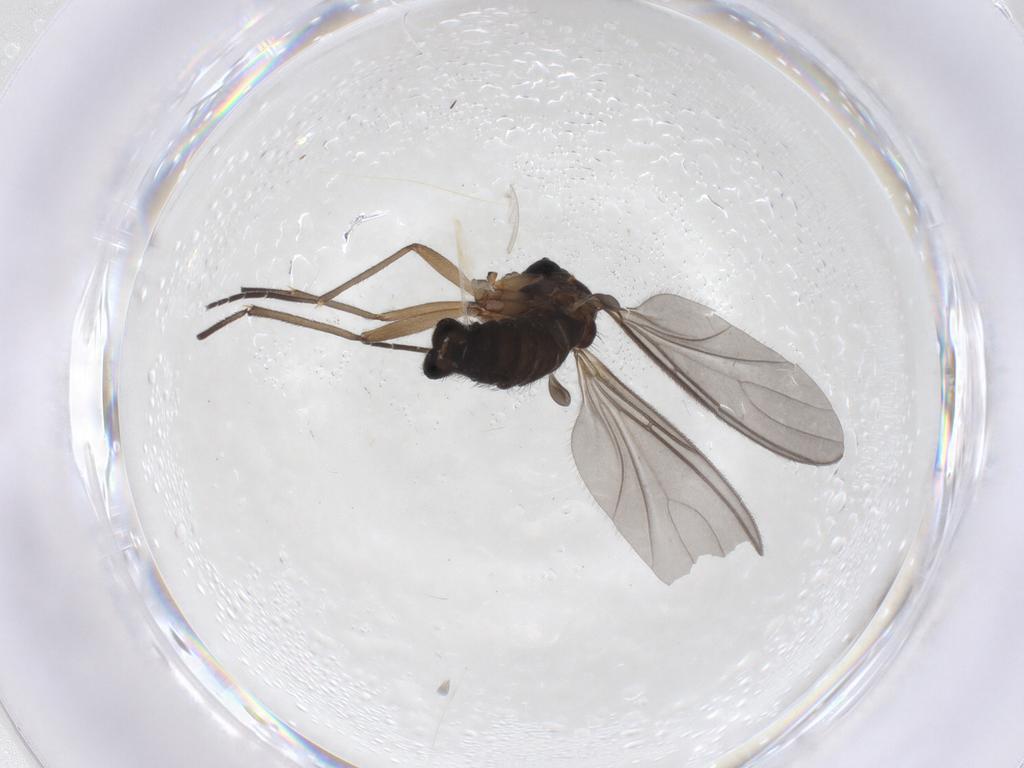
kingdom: Animalia
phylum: Arthropoda
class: Insecta
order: Diptera
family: Sciaridae
